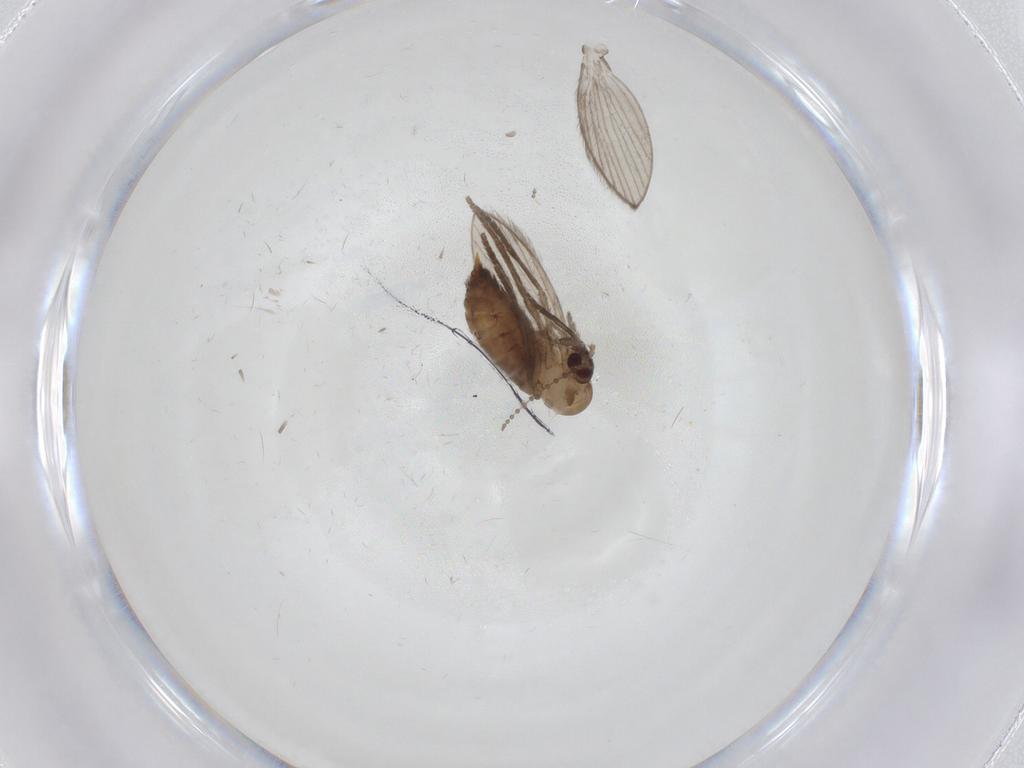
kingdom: Animalia
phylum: Arthropoda
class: Insecta
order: Diptera
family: Psychodidae
